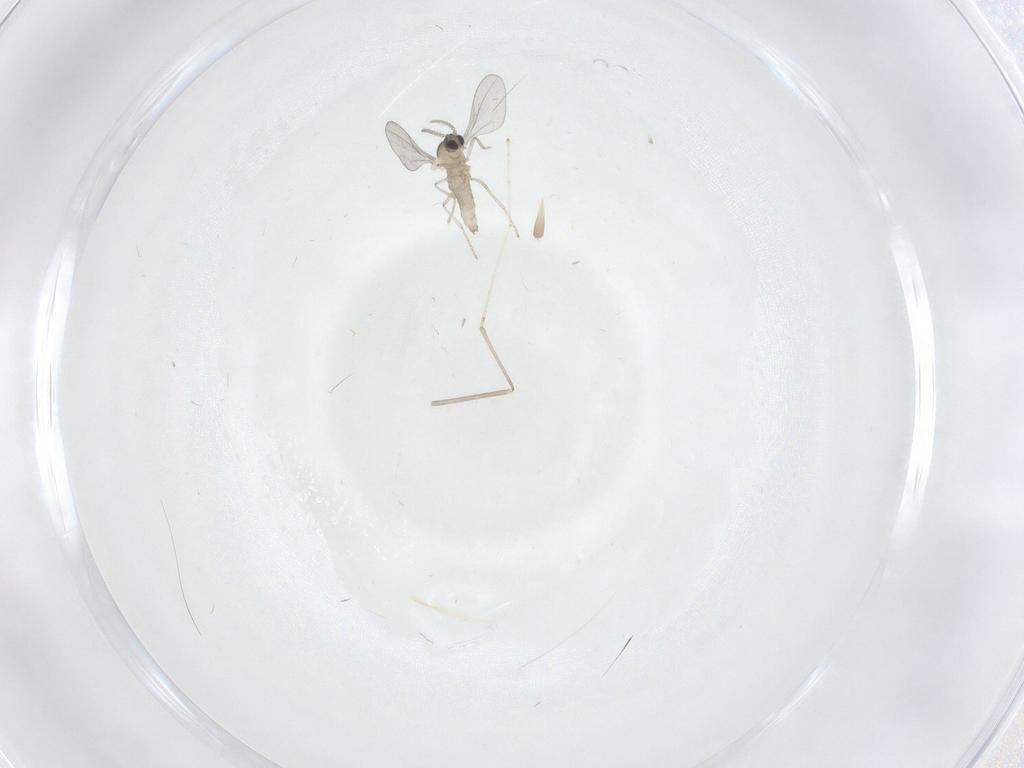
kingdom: Animalia
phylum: Arthropoda
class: Insecta
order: Diptera
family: Cecidomyiidae
